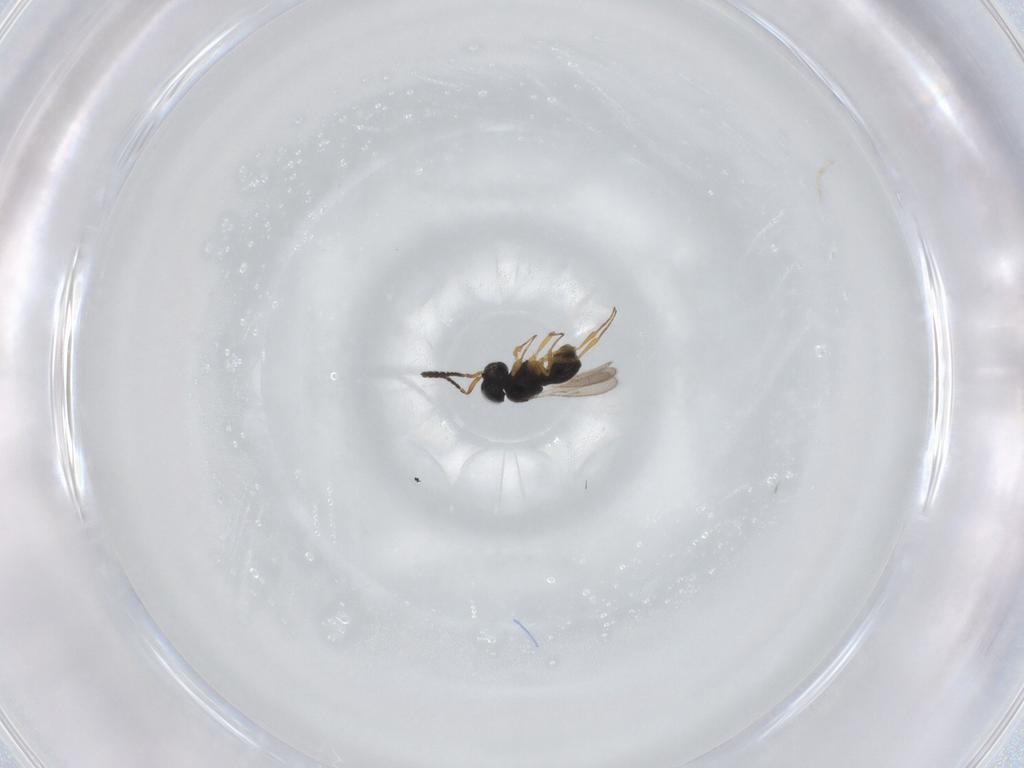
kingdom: Animalia
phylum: Arthropoda
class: Insecta
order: Hymenoptera
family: Scelionidae
